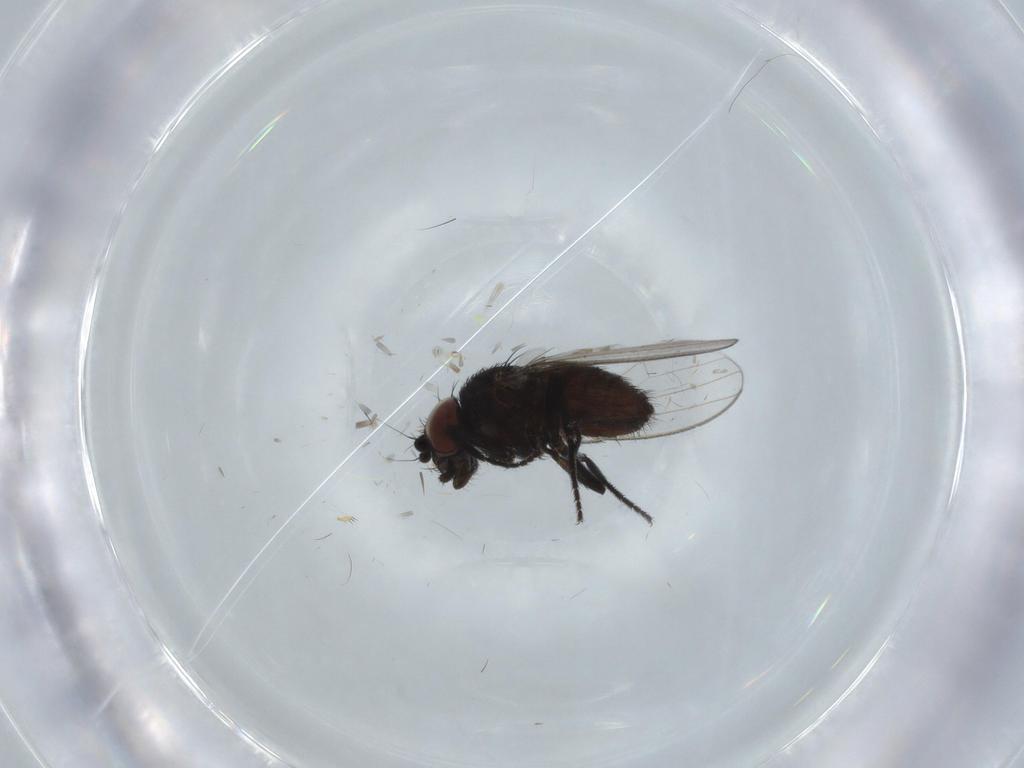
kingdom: Animalia
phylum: Arthropoda
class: Insecta
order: Diptera
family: Milichiidae
